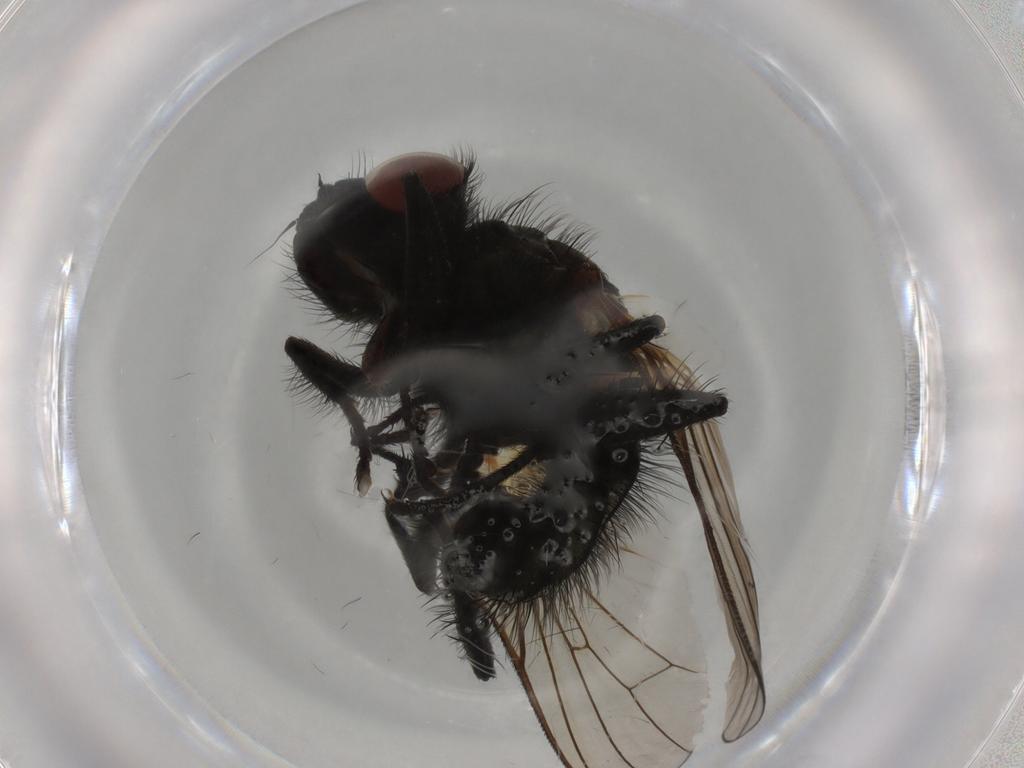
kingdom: Animalia
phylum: Arthropoda
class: Insecta
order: Diptera
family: Anthomyiidae
